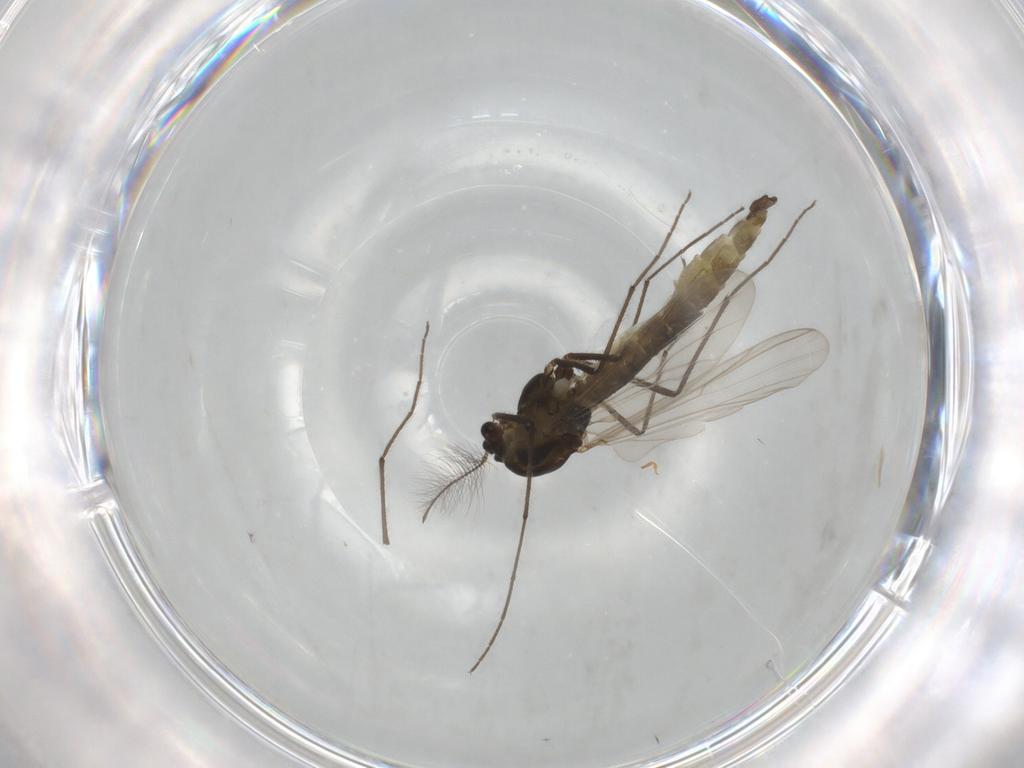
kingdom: Animalia
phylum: Arthropoda
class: Insecta
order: Diptera
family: Chironomidae
